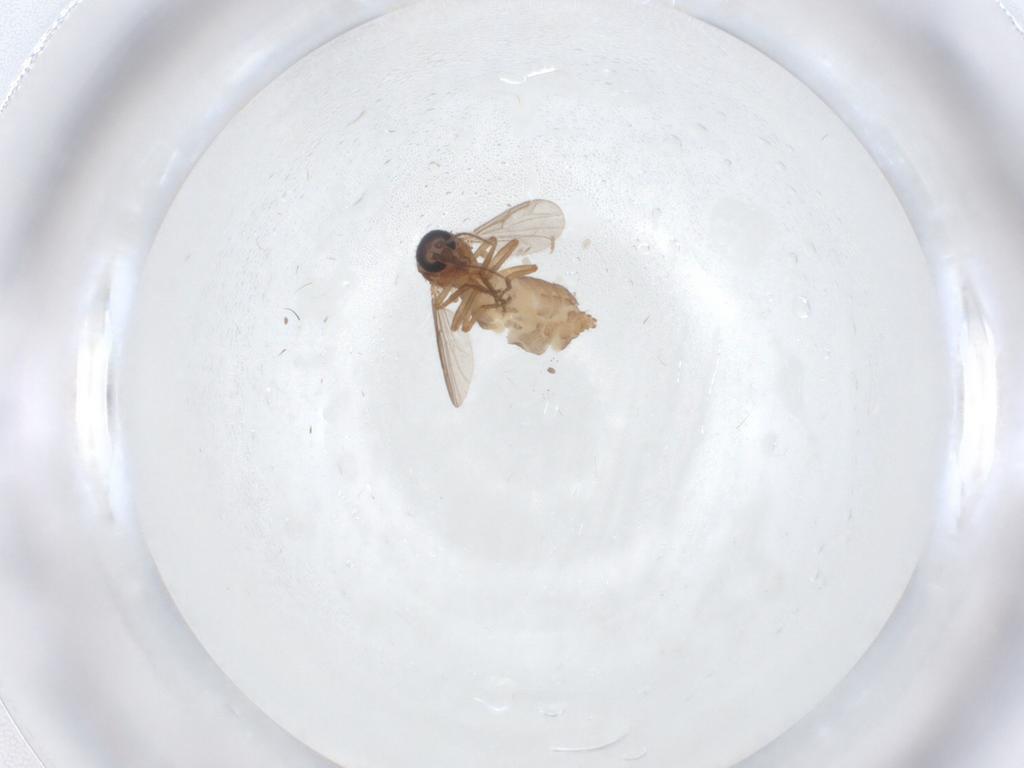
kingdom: Animalia
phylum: Arthropoda
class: Insecta
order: Diptera
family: Ceratopogonidae
